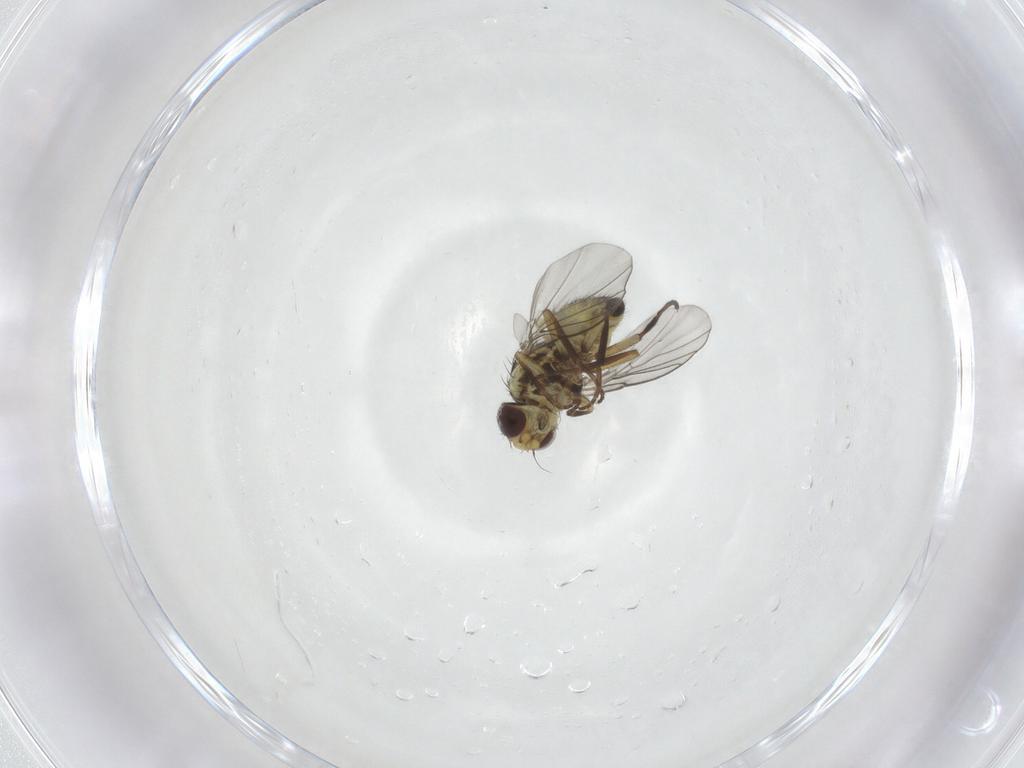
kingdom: Animalia
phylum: Arthropoda
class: Insecta
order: Diptera
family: Agromyzidae
